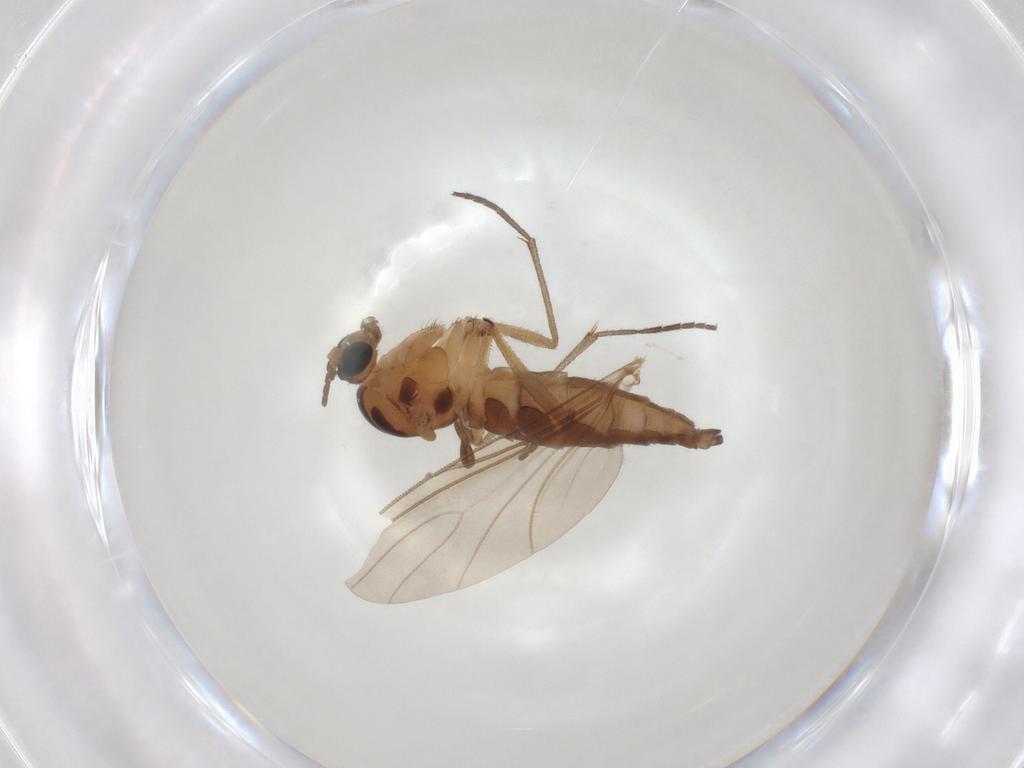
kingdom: Animalia
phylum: Arthropoda
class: Insecta
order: Diptera
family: Sciaridae
